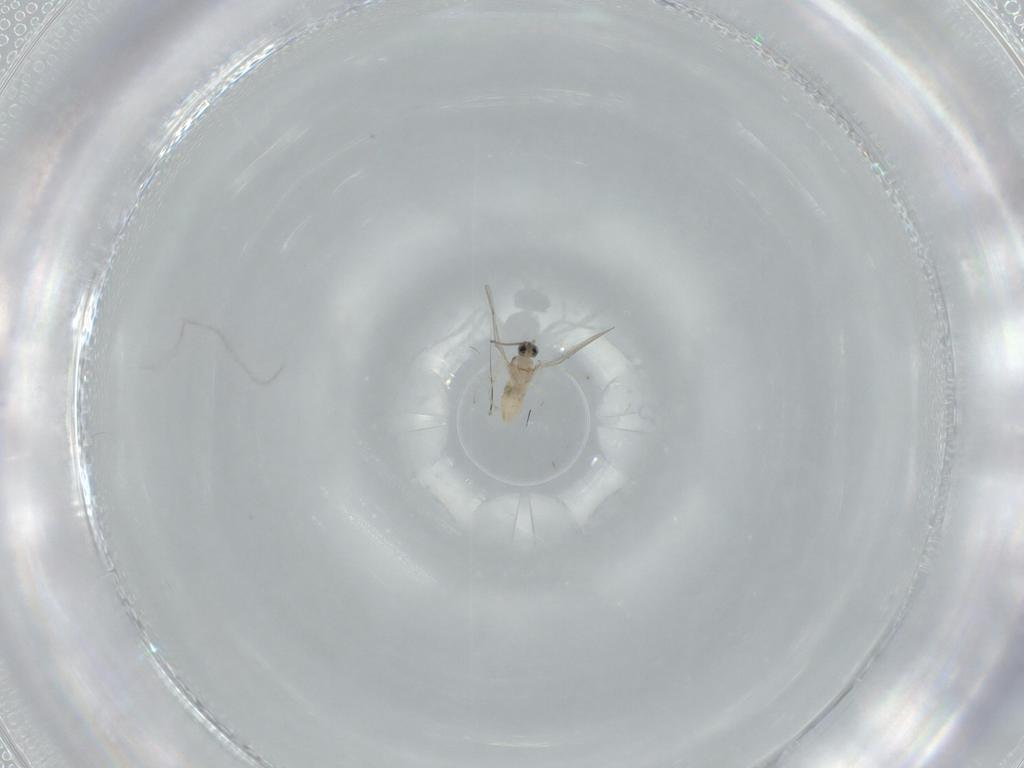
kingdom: Animalia
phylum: Arthropoda
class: Insecta
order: Diptera
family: Cecidomyiidae
